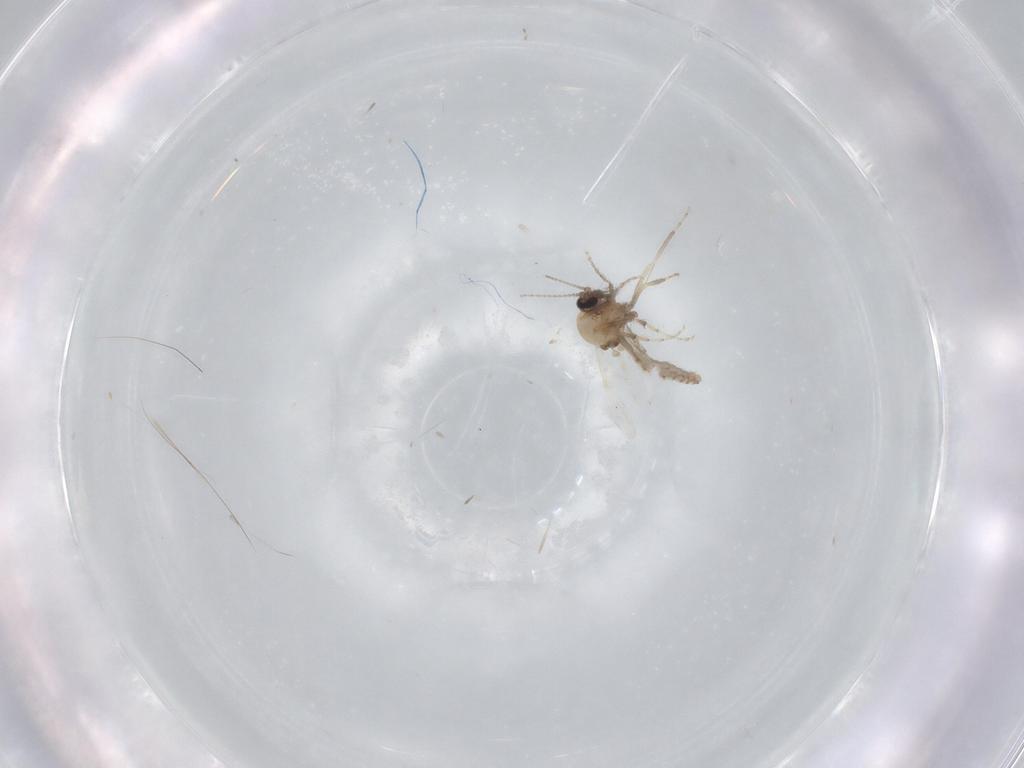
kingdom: Animalia
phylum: Arthropoda
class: Insecta
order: Diptera
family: Ceratopogonidae
